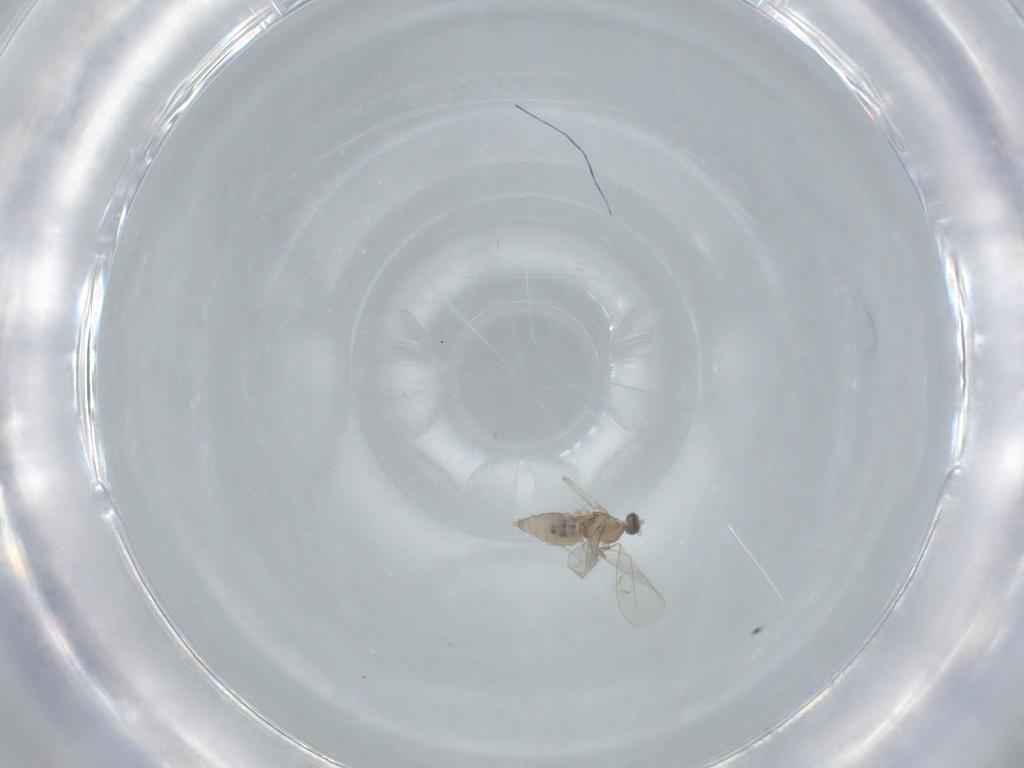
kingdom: Animalia
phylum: Arthropoda
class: Insecta
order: Diptera
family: Cecidomyiidae
